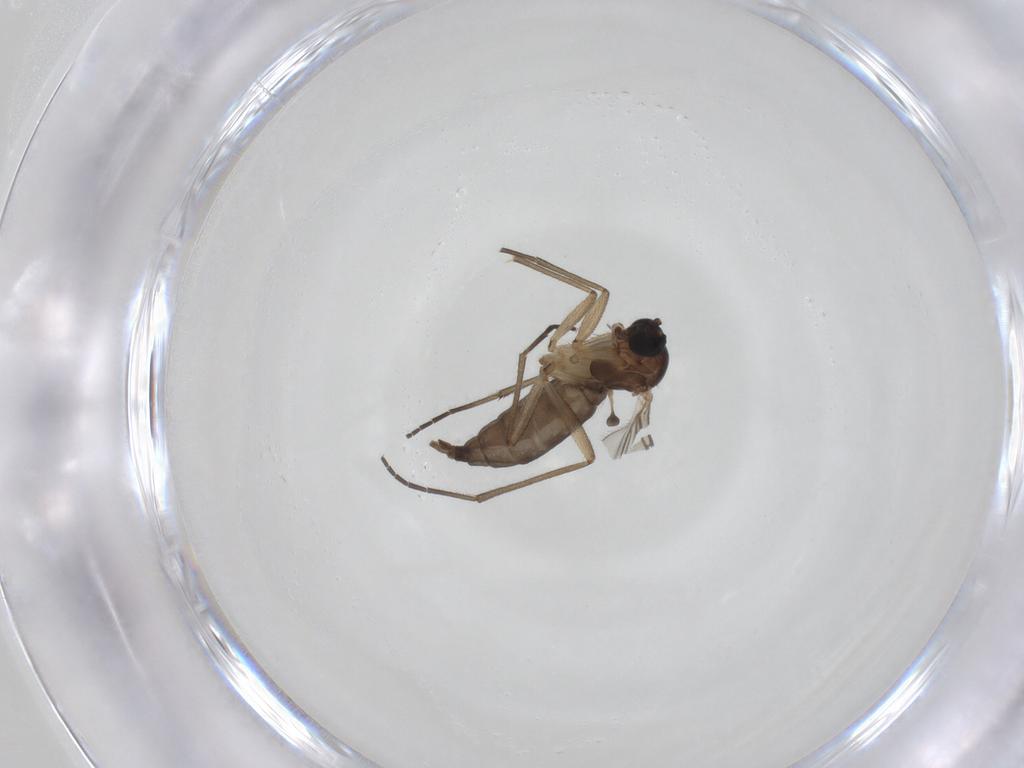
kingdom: Animalia
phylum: Arthropoda
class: Insecta
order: Diptera
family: Sciaridae
